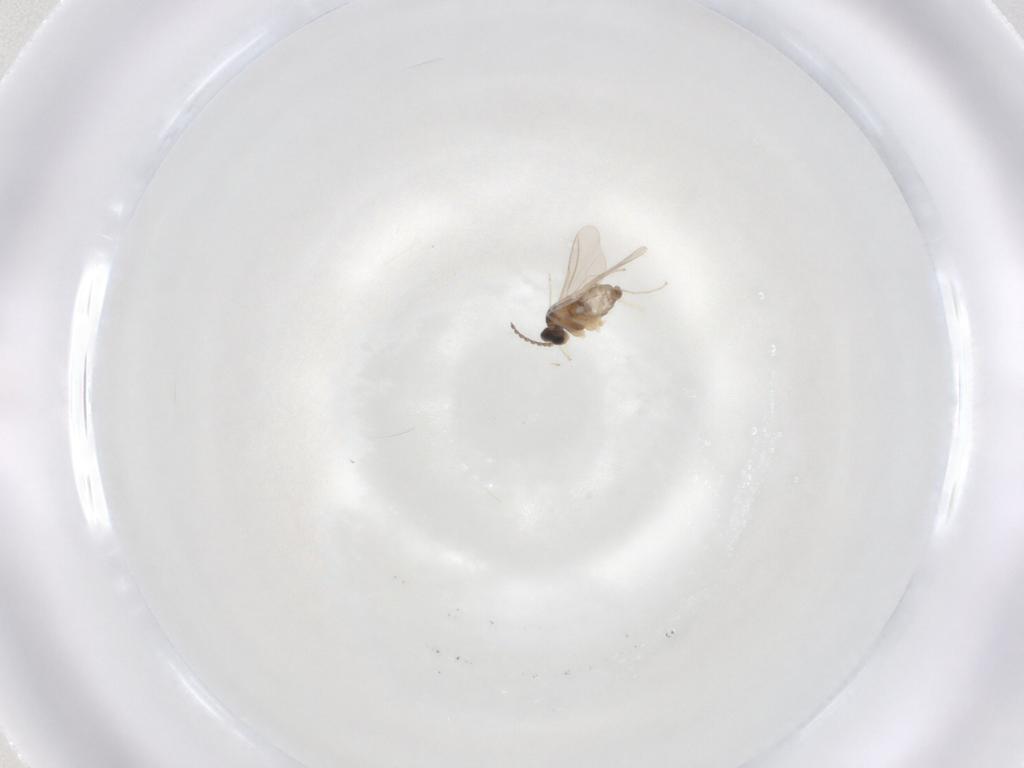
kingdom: Animalia
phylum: Arthropoda
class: Insecta
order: Diptera
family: Cecidomyiidae
